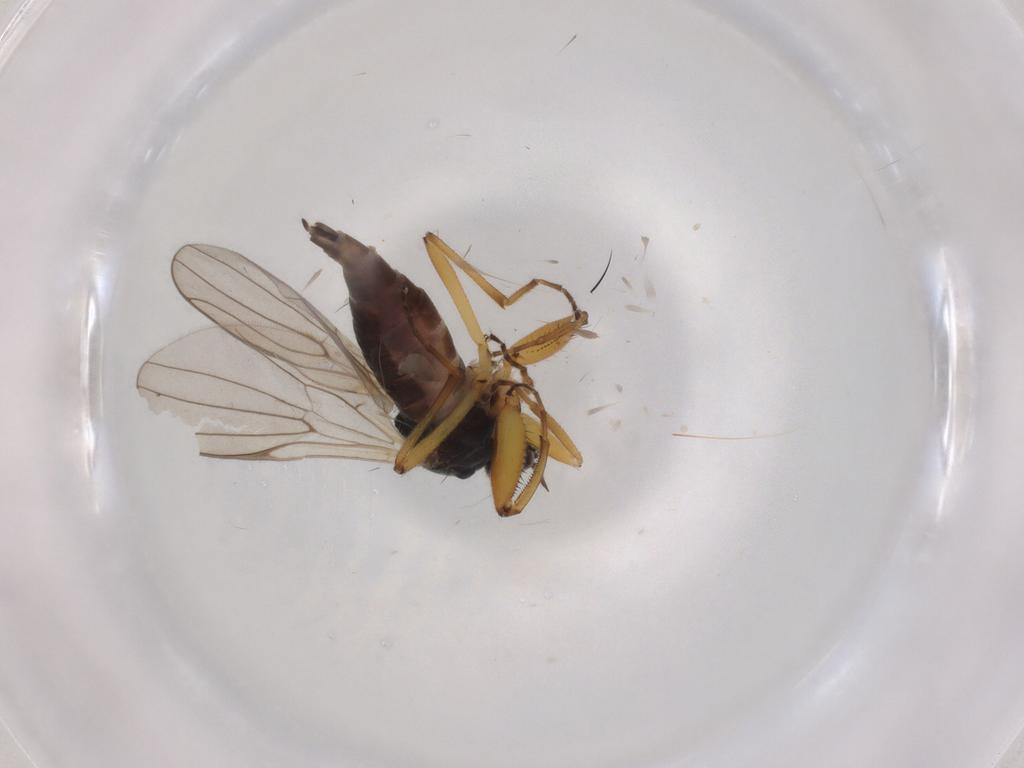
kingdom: Animalia
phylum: Arthropoda
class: Insecta
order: Diptera
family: Hybotidae
